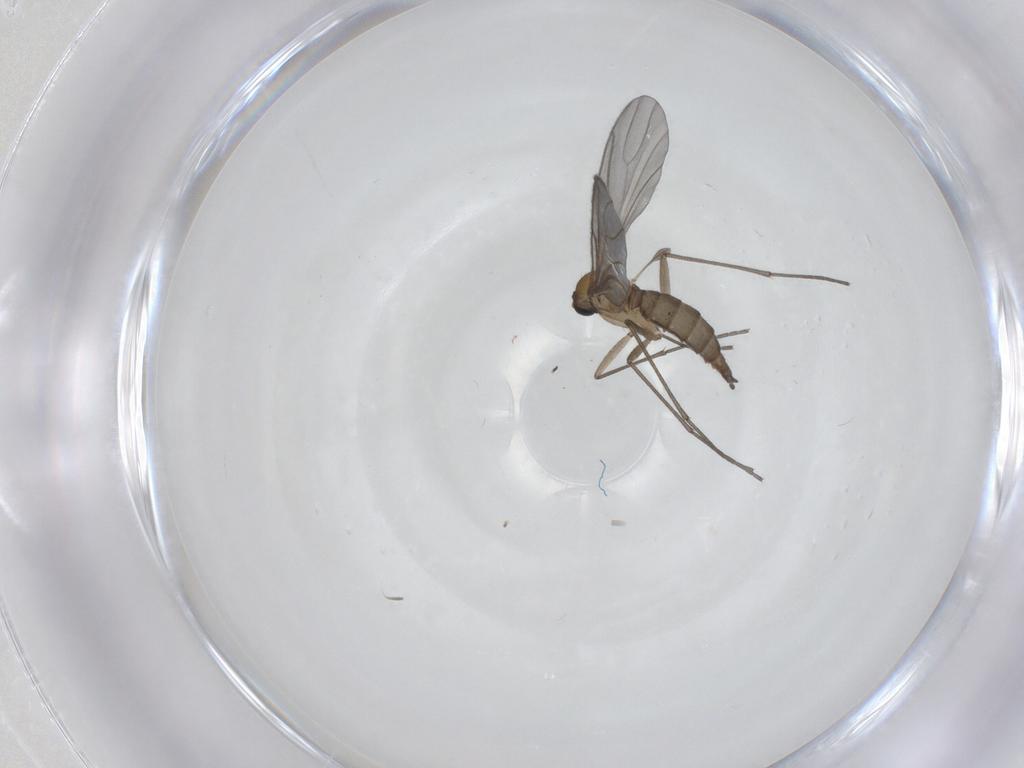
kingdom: Animalia
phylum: Arthropoda
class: Insecta
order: Diptera
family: Sciaridae
